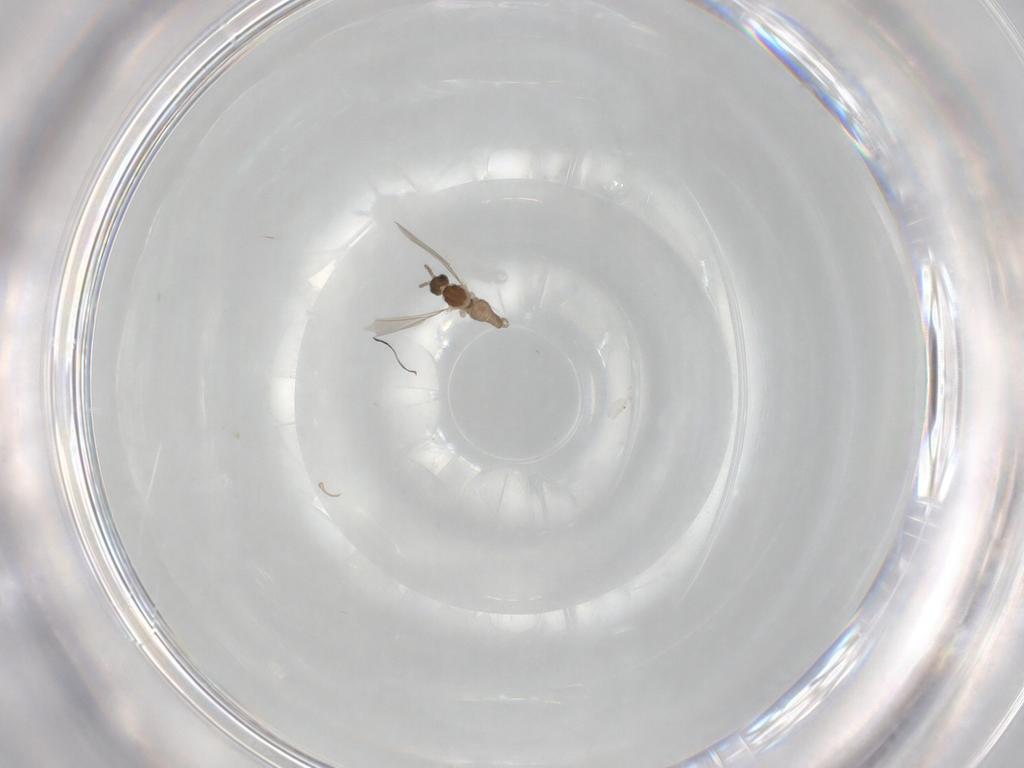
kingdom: Animalia
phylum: Arthropoda
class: Insecta
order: Diptera
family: Cecidomyiidae
